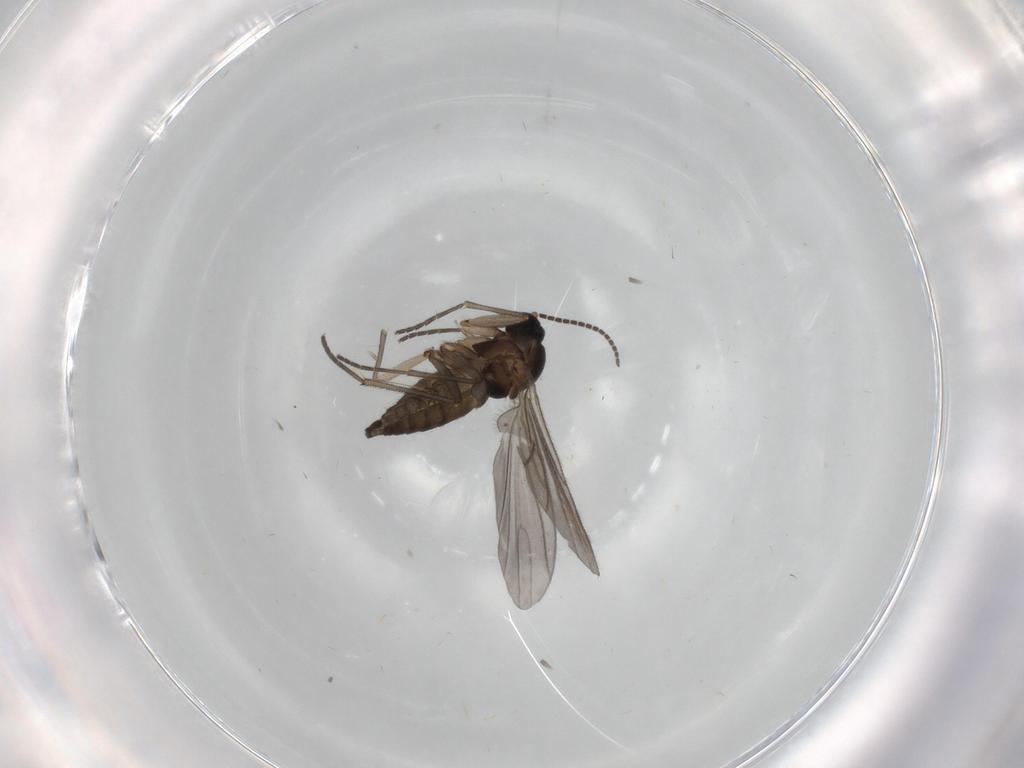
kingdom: Animalia
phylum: Arthropoda
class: Insecta
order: Diptera
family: Sciaridae
